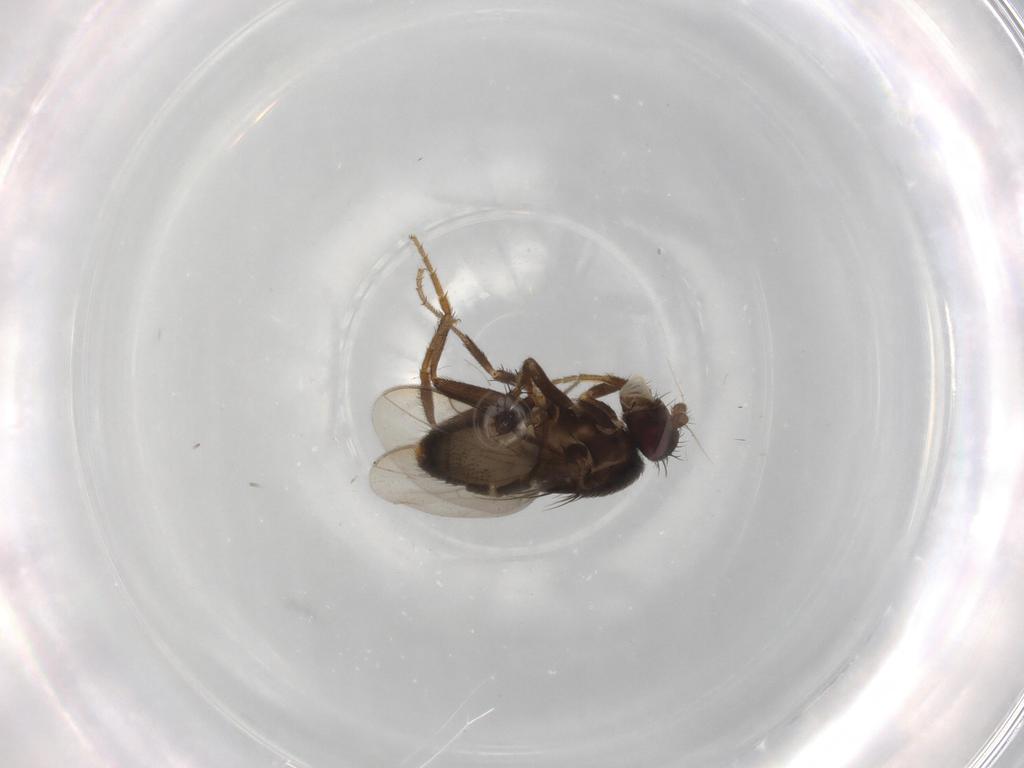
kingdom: Animalia
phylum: Arthropoda
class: Insecta
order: Diptera
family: Sphaeroceridae
